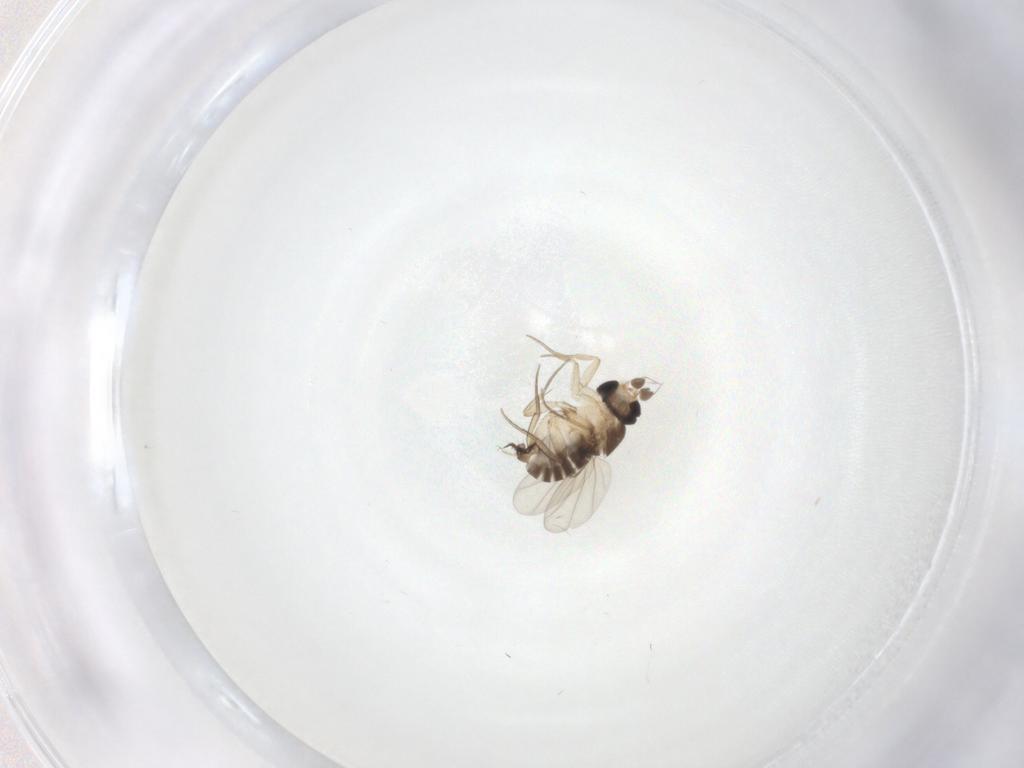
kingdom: Animalia
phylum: Arthropoda
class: Insecta
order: Diptera
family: Phoridae
